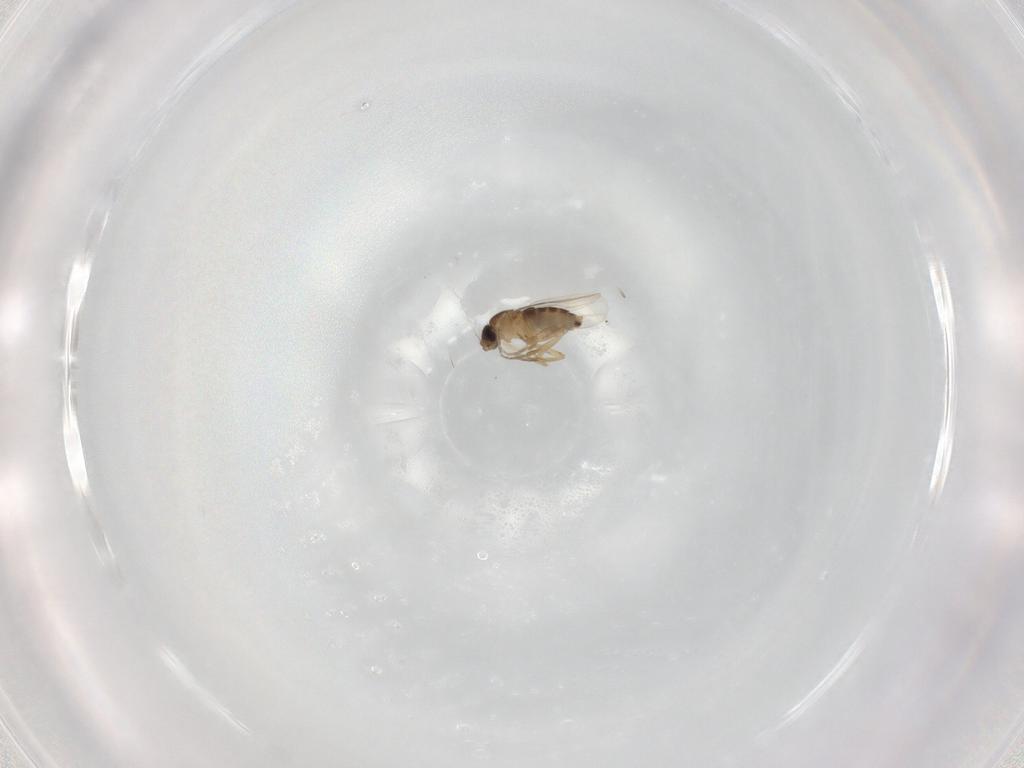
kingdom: Animalia
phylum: Arthropoda
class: Insecta
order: Diptera
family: Phoridae
